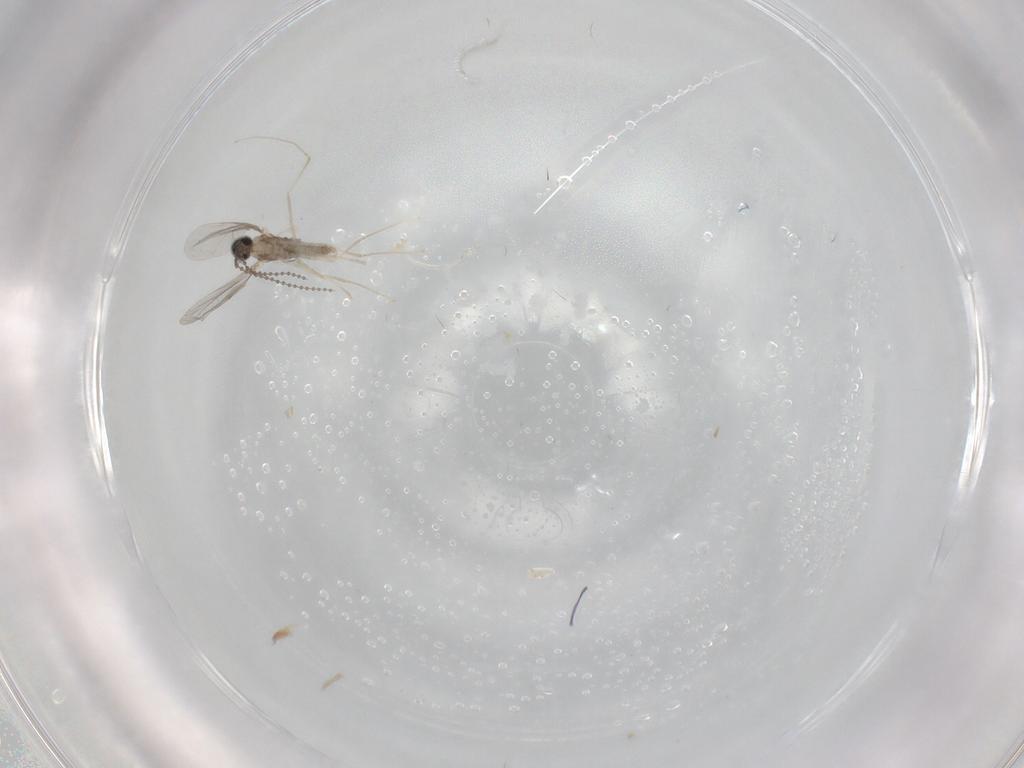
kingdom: Animalia
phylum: Arthropoda
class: Insecta
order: Diptera
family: Cecidomyiidae
